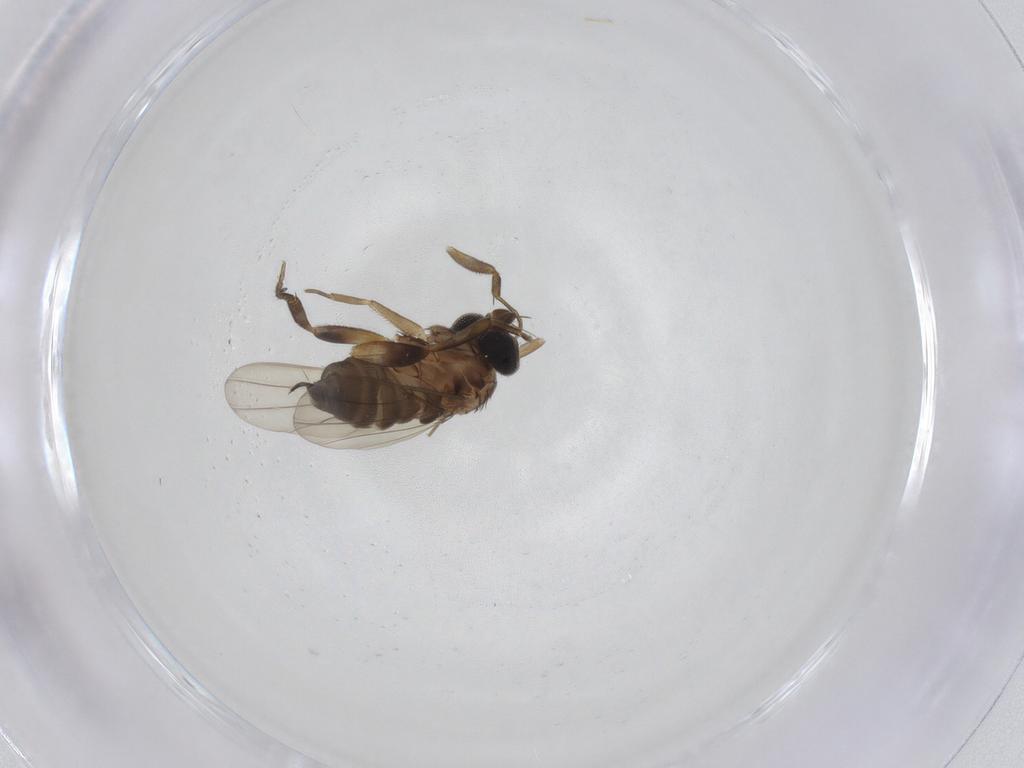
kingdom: Animalia
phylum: Arthropoda
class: Insecta
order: Diptera
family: Phoridae
